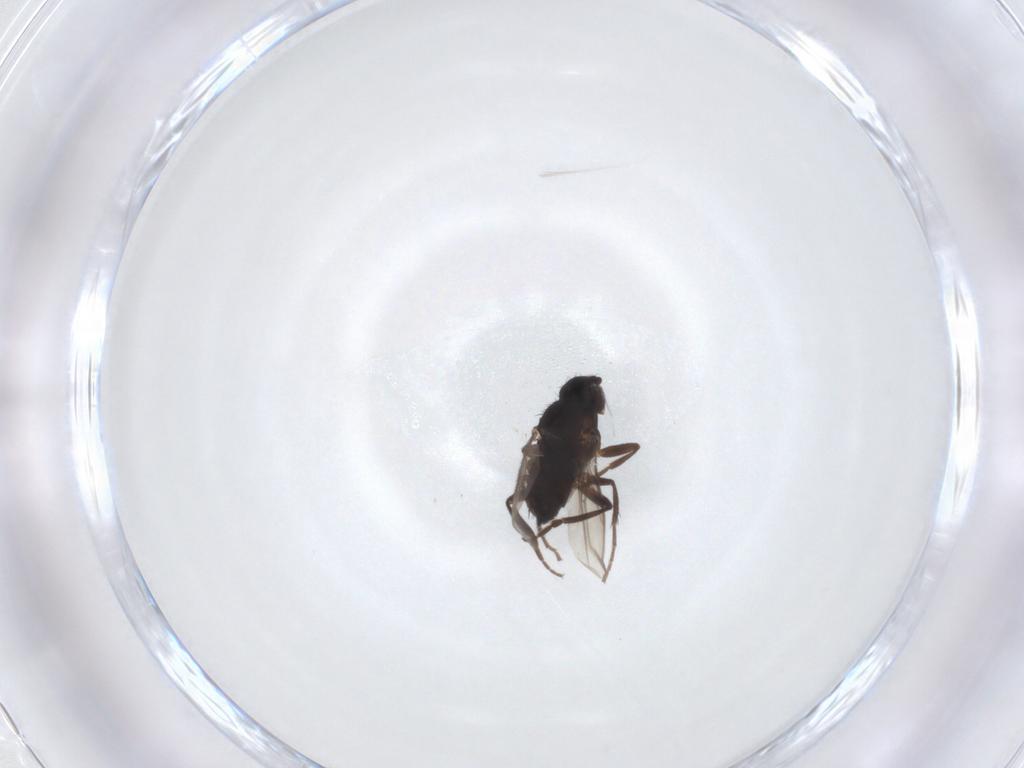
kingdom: Animalia
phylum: Arthropoda
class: Insecta
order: Diptera
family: Sphaeroceridae
